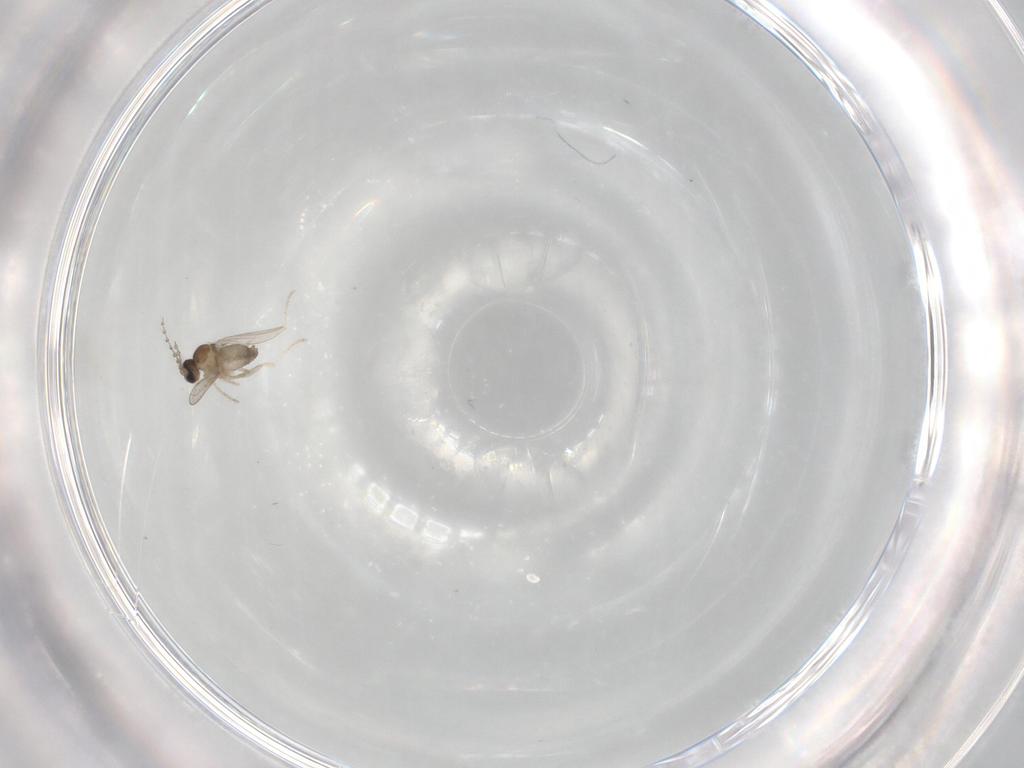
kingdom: Animalia
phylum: Arthropoda
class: Insecta
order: Diptera
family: Cecidomyiidae
